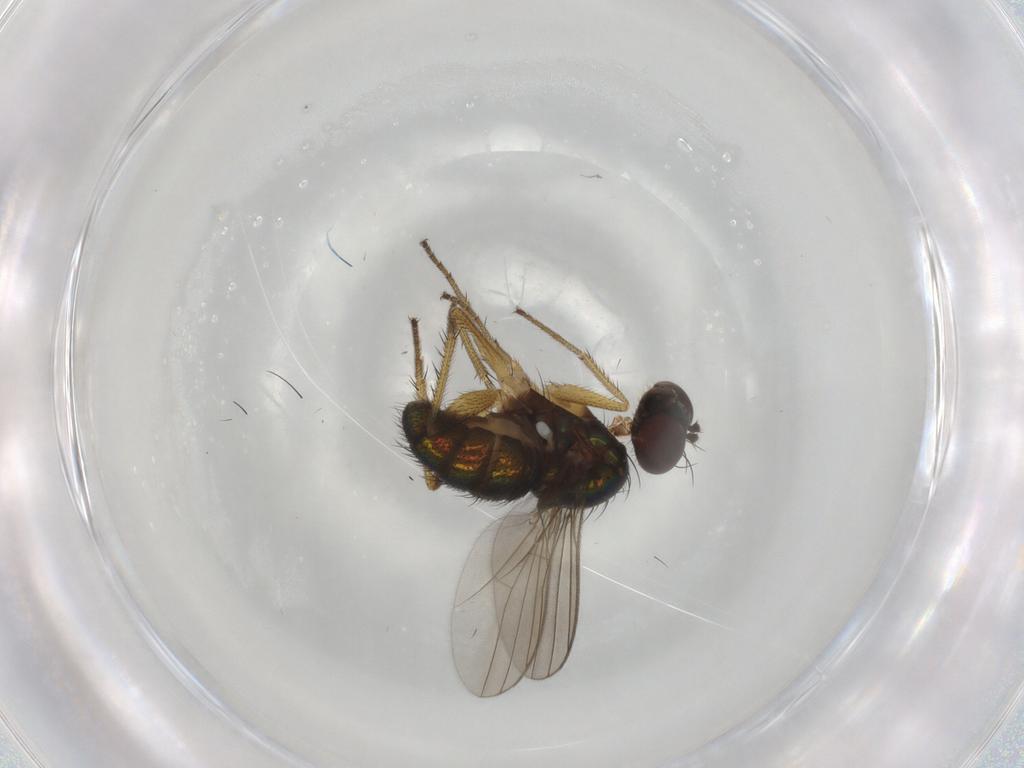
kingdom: Animalia
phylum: Arthropoda
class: Insecta
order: Diptera
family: Dolichopodidae
